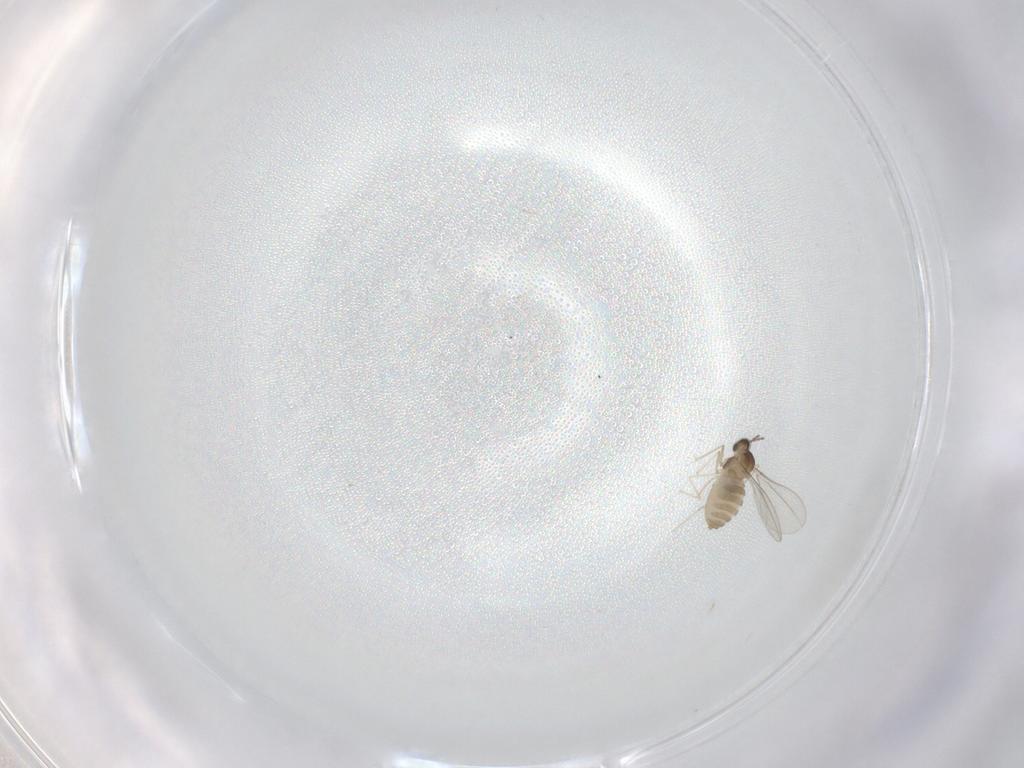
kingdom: Animalia
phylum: Arthropoda
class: Insecta
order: Diptera
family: Cecidomyiidae
